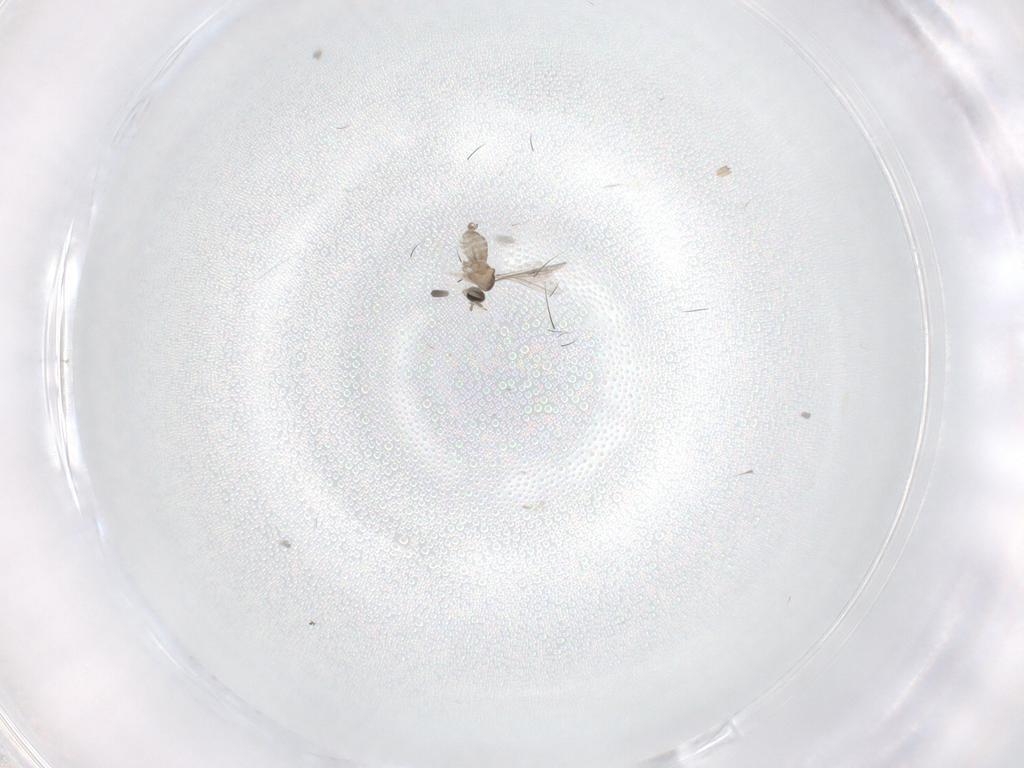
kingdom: Animalia
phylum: Arthropoda
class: Insecta
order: Diptera
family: Cecidomyiidae
